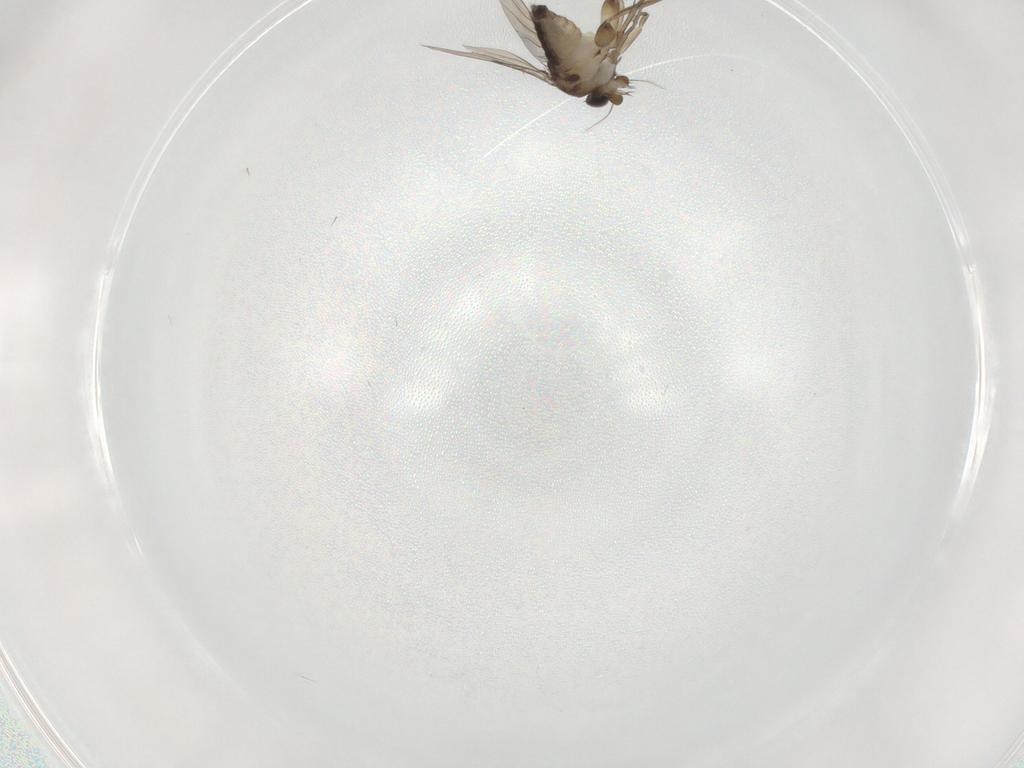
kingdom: Animalia
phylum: Arthropoda
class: Insecta
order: Diptera
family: Phoridae
